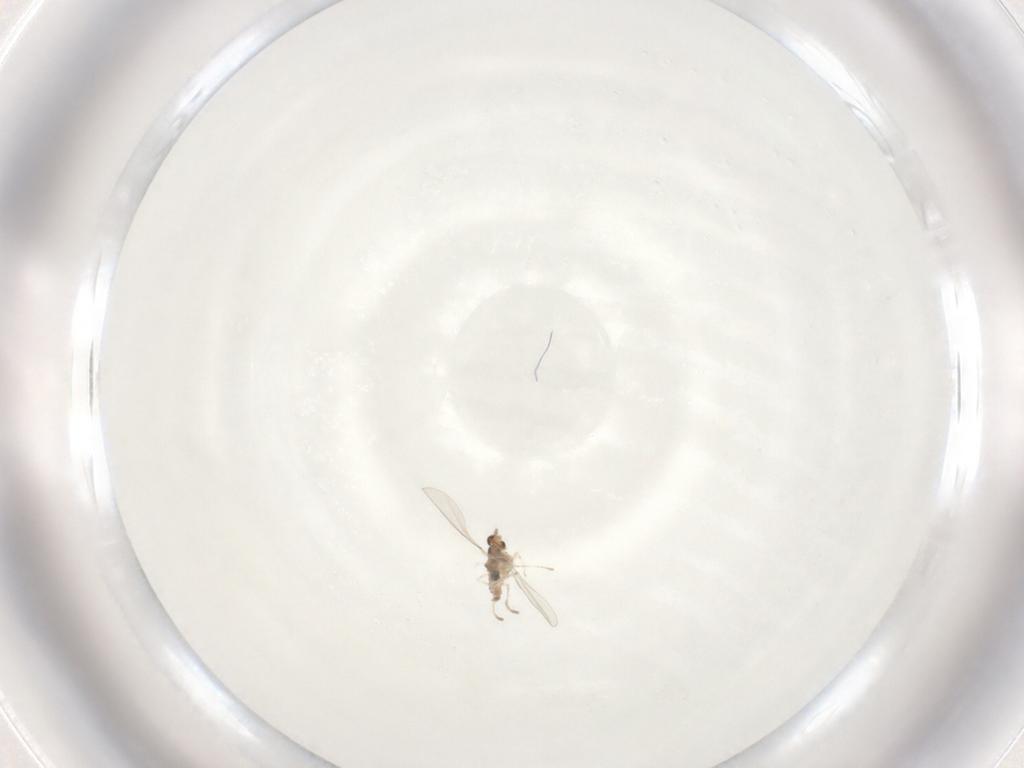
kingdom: Animalia
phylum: Arthropoda
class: Insecta
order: Diptera
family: Cecidomyiidae
